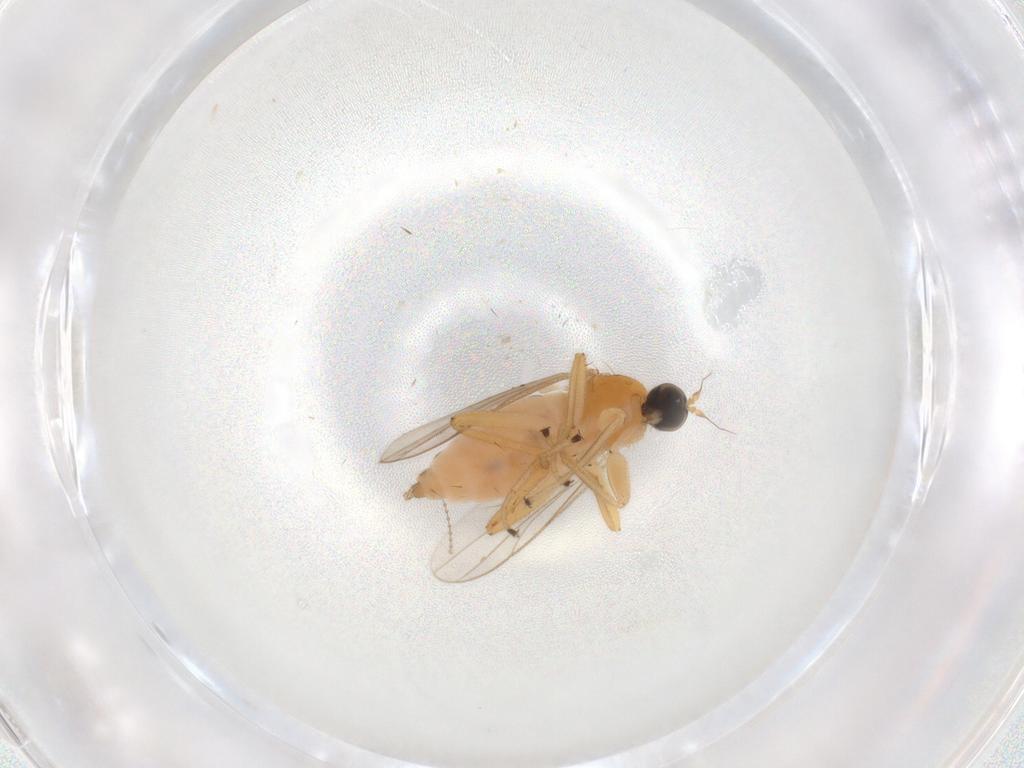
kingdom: Animalia
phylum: Arthropoda
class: Insecta
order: Diptera
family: Hybotidae
